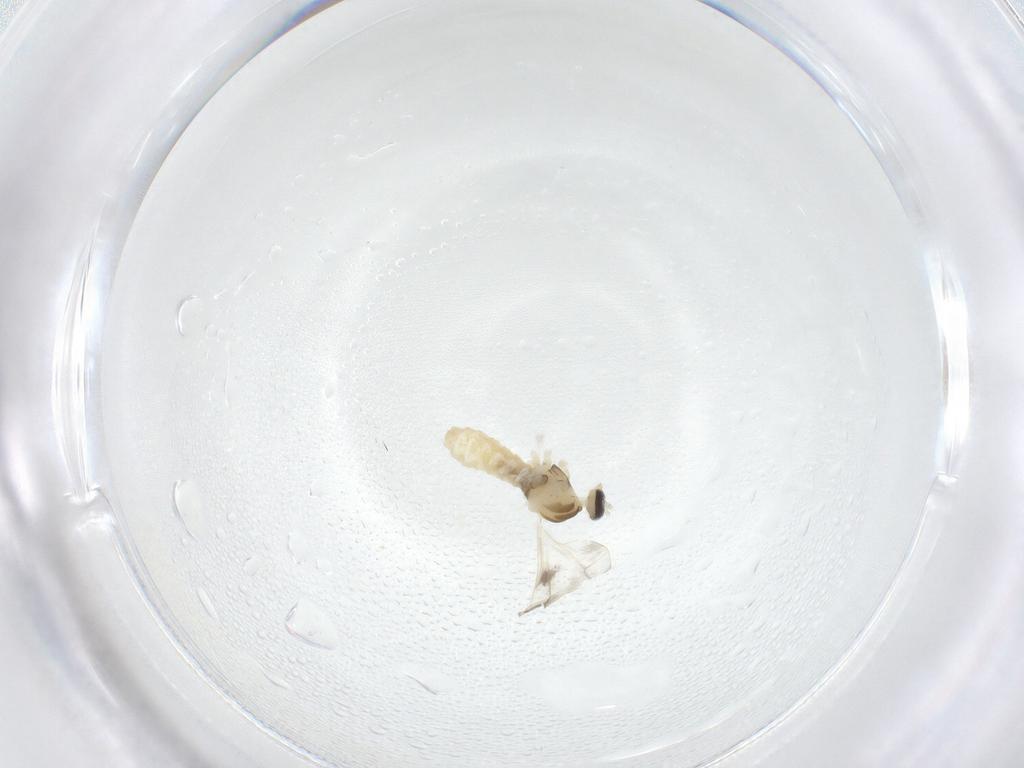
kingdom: Animalia
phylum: Arthropoda
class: Insecta
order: Diptera
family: Cecidomyiidae
